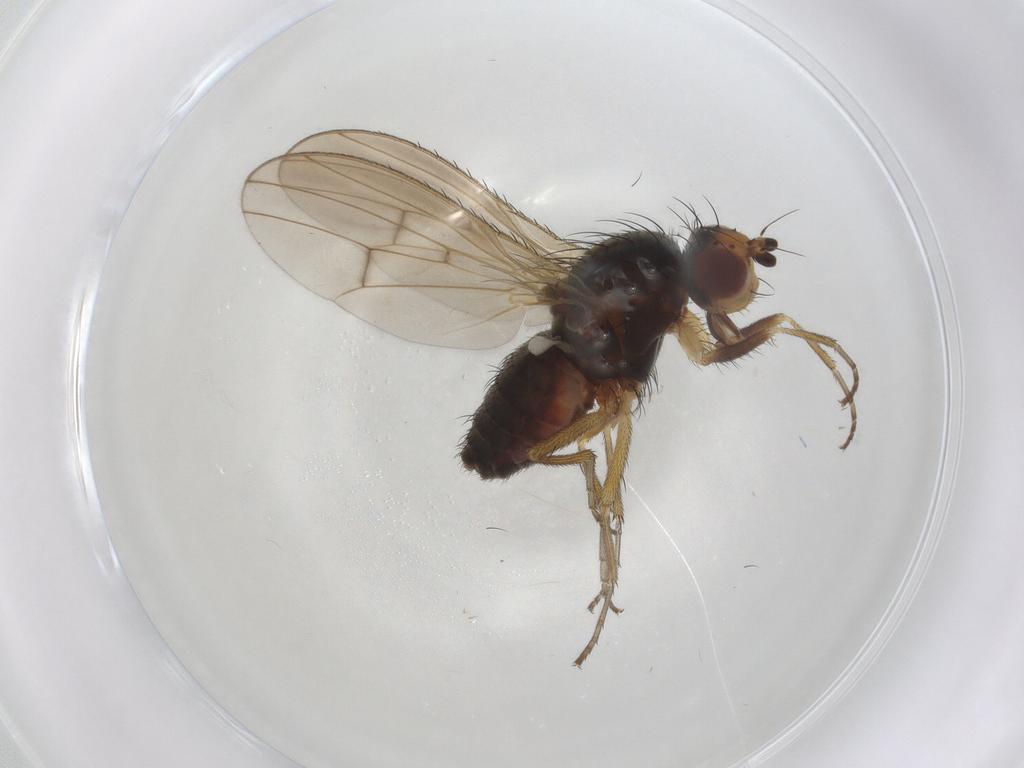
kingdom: Animalia
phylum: Arthropoda
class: Insecta
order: Diptera
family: Heleomyzidae
